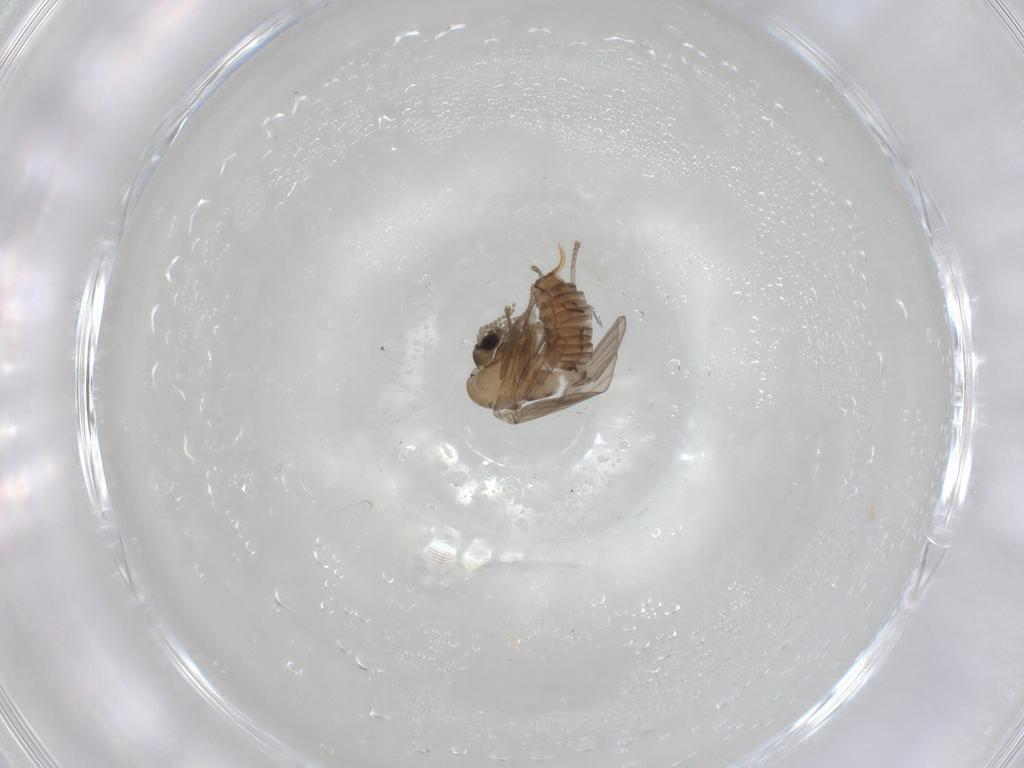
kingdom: Animalia
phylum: Arthropoda
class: Insecta
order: Diptera
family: Psychodidae
